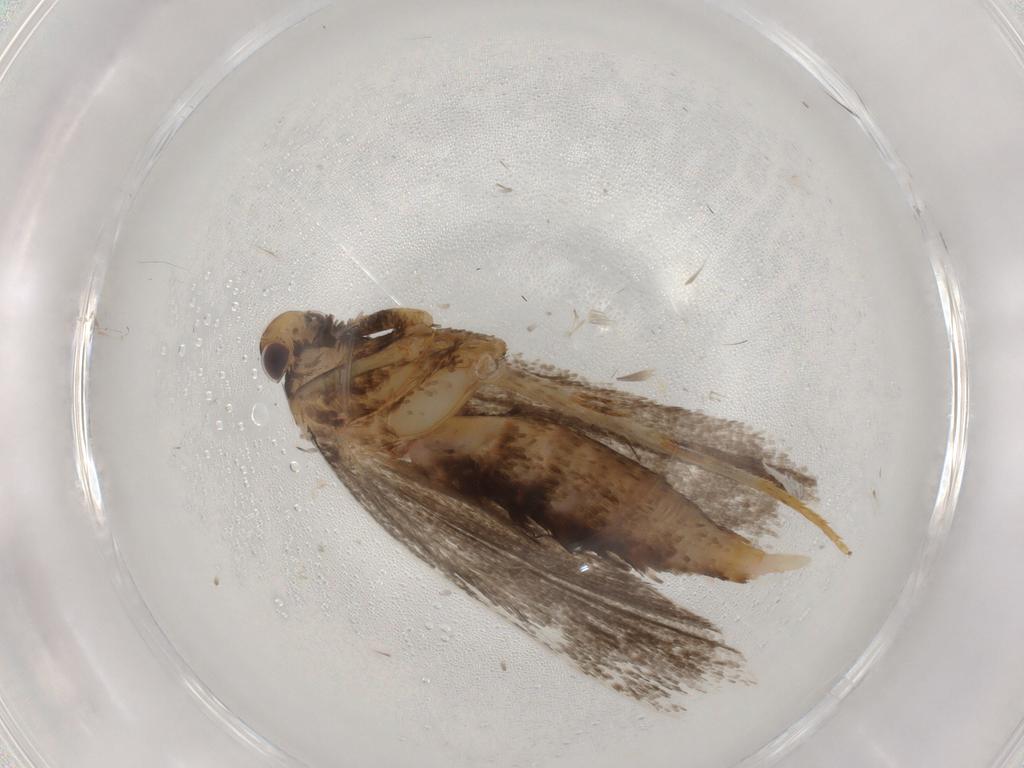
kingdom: Animalia
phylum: Arthropoda
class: Insecta
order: Lepidoptera
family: Lecithoceridae
